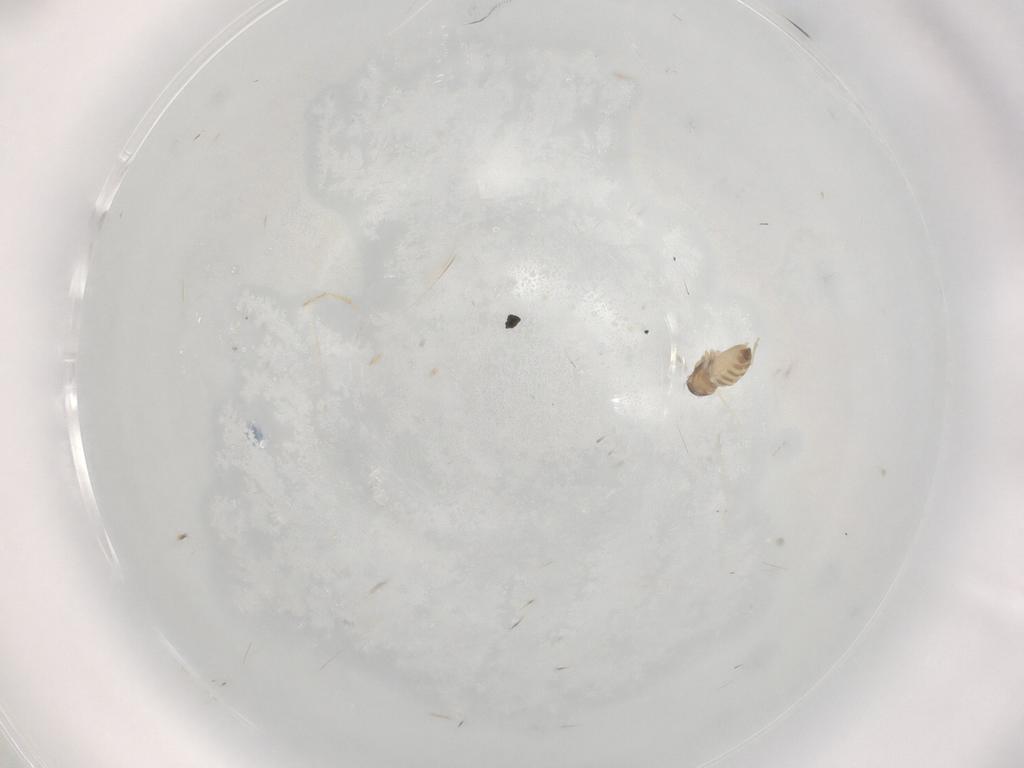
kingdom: Animalia
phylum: Arthropoda
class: Insecta
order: Diptera
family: Cecidomyiidae
